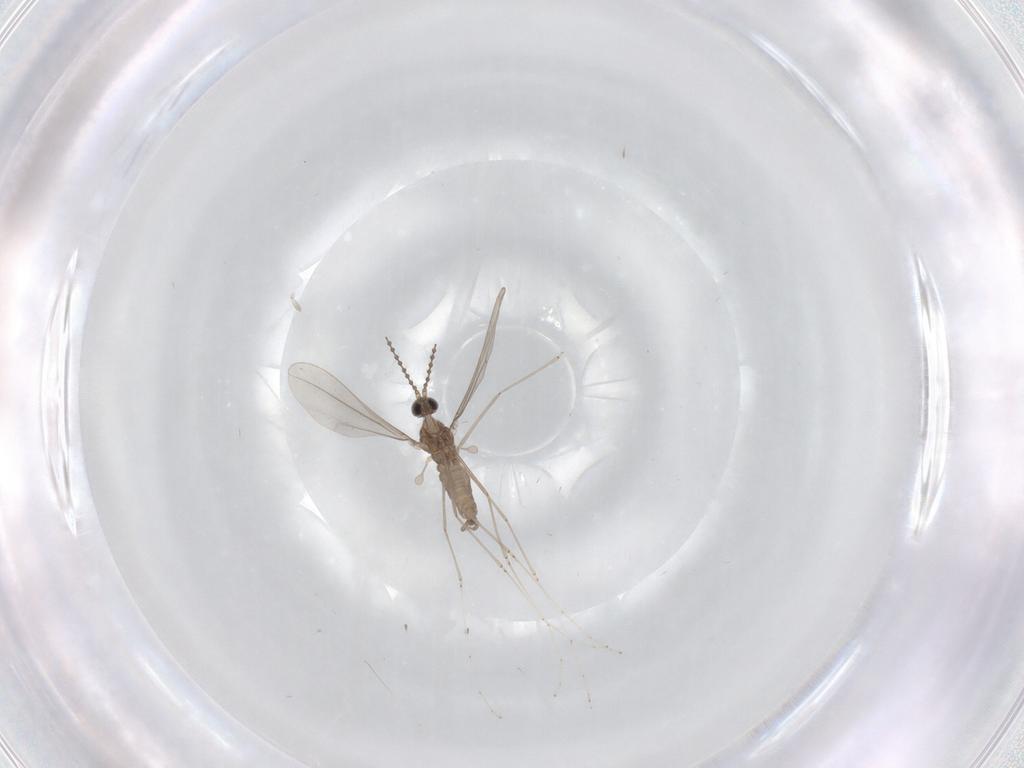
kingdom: Animalia
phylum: Arthropoda
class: Insecta
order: Diptera
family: Cecidomyiidae
